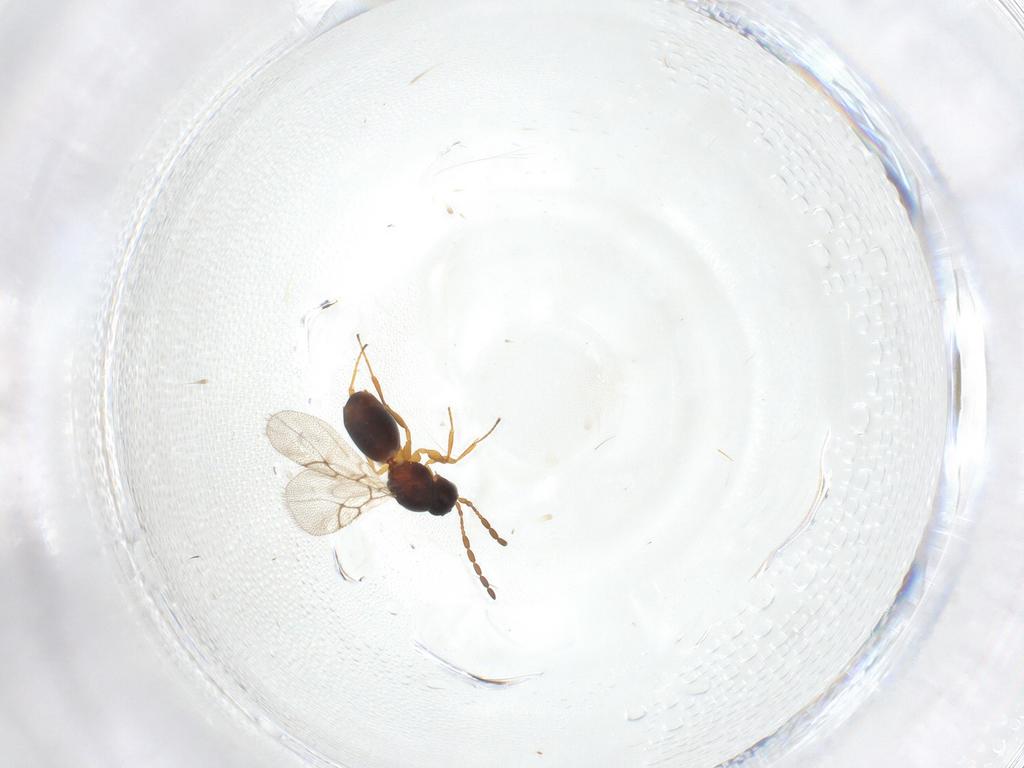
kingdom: Animalia
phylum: Arthropoda
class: Insecta
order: Hymenoptera
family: Figitidae
